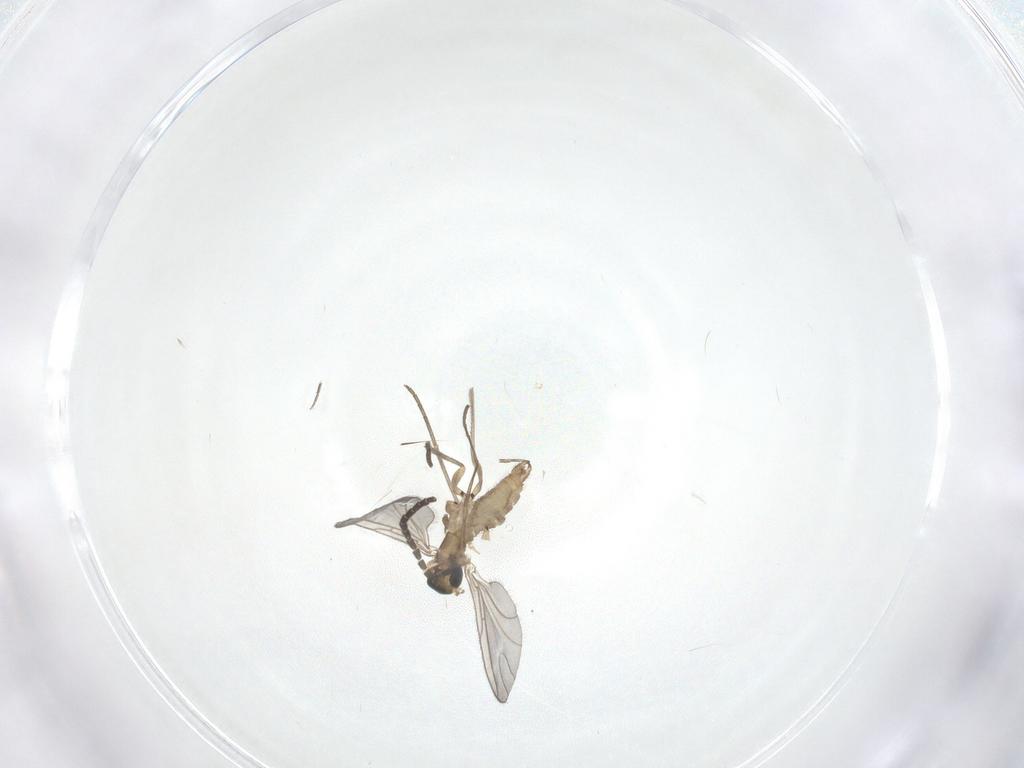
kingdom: Animalia
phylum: Arthropoda
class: Insecta
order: Diptera
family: Sciaridae
